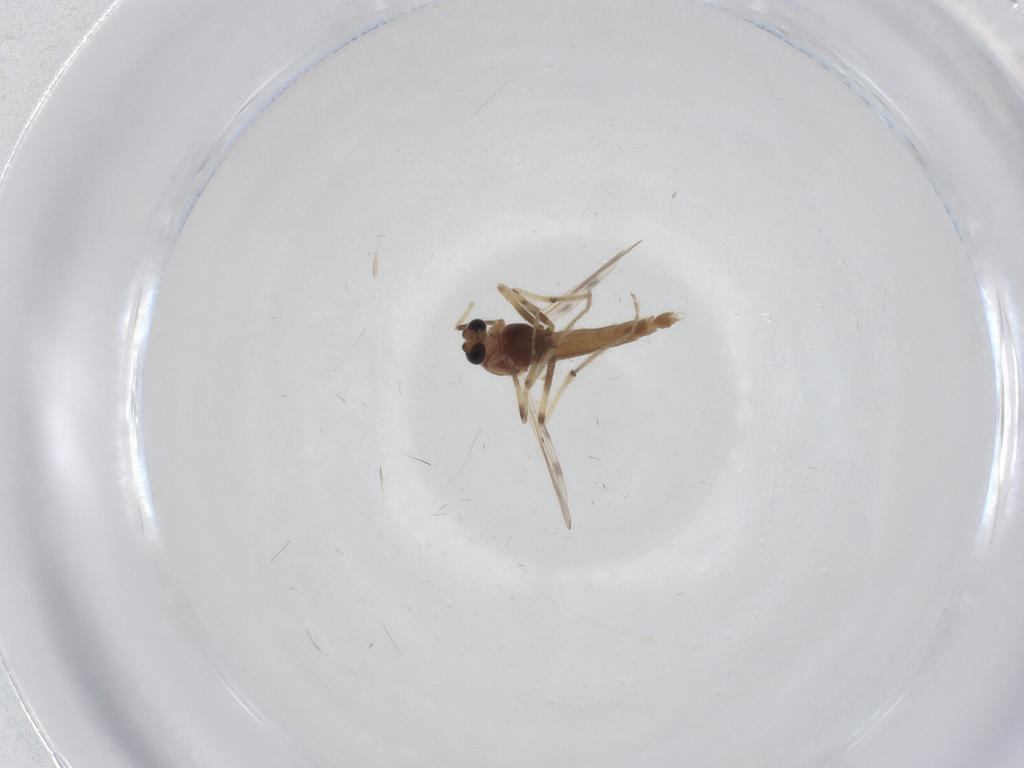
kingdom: Animalia
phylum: Arthropoda
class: Insecta
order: Diptera
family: Chironomidae
